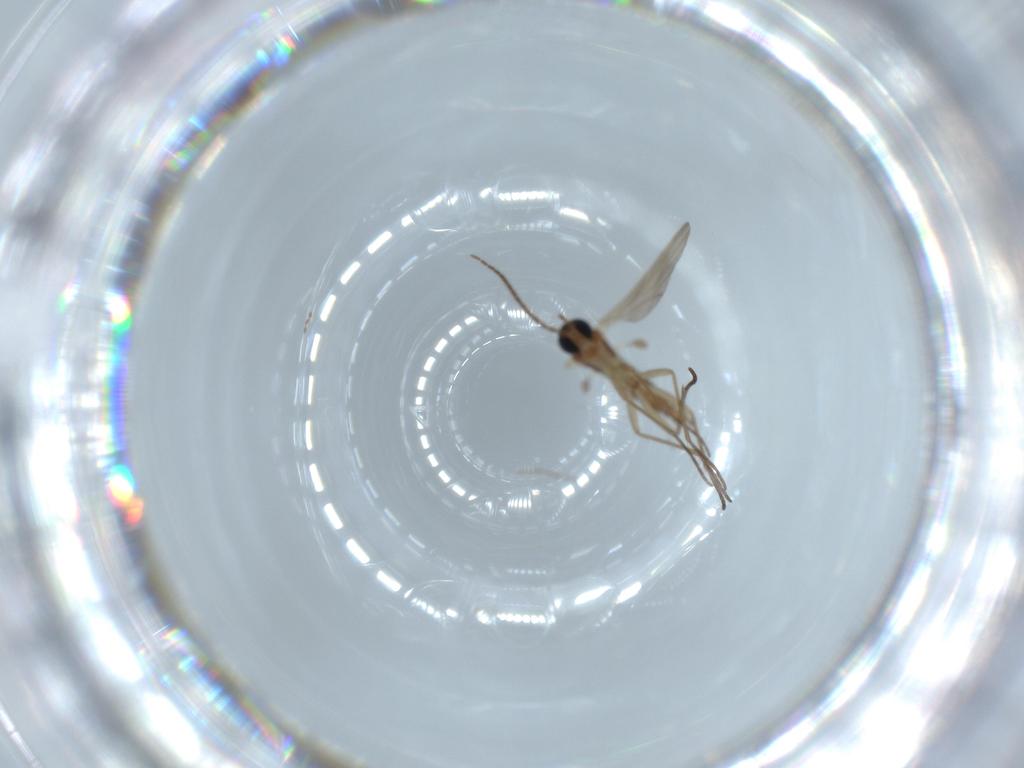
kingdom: Animalia
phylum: Arthropoda
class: Insecta
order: Diptera
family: Sciaridae
